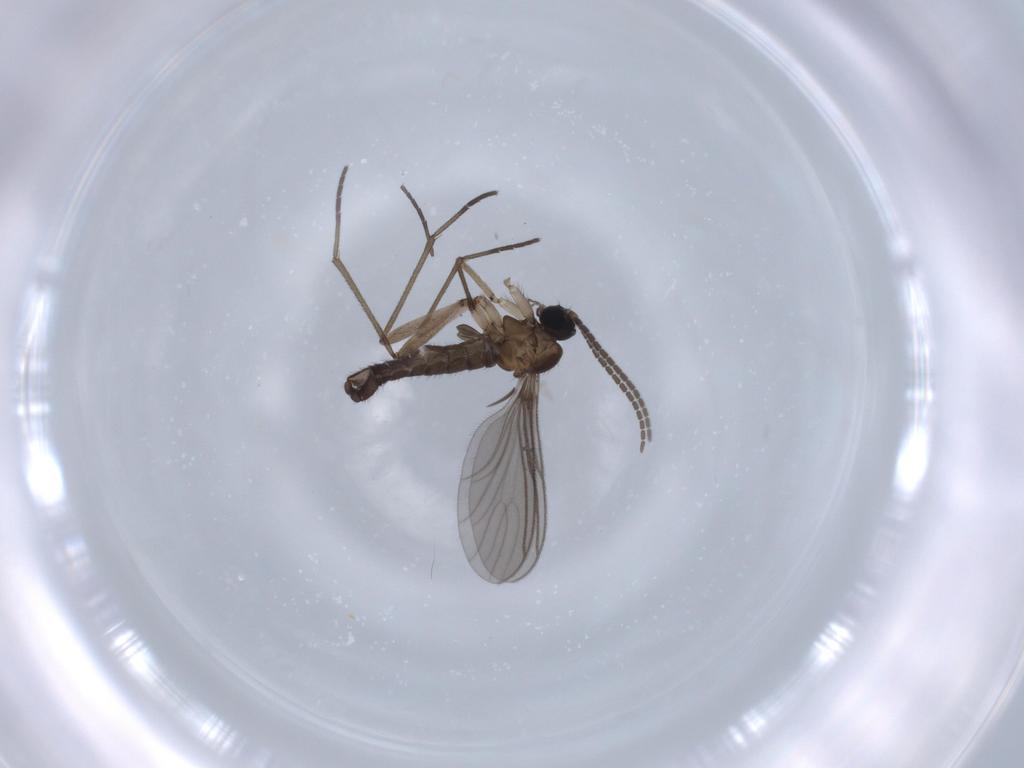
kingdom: Animalia
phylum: Arthropoda
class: Insecta
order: Diptera
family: Sciaridae
